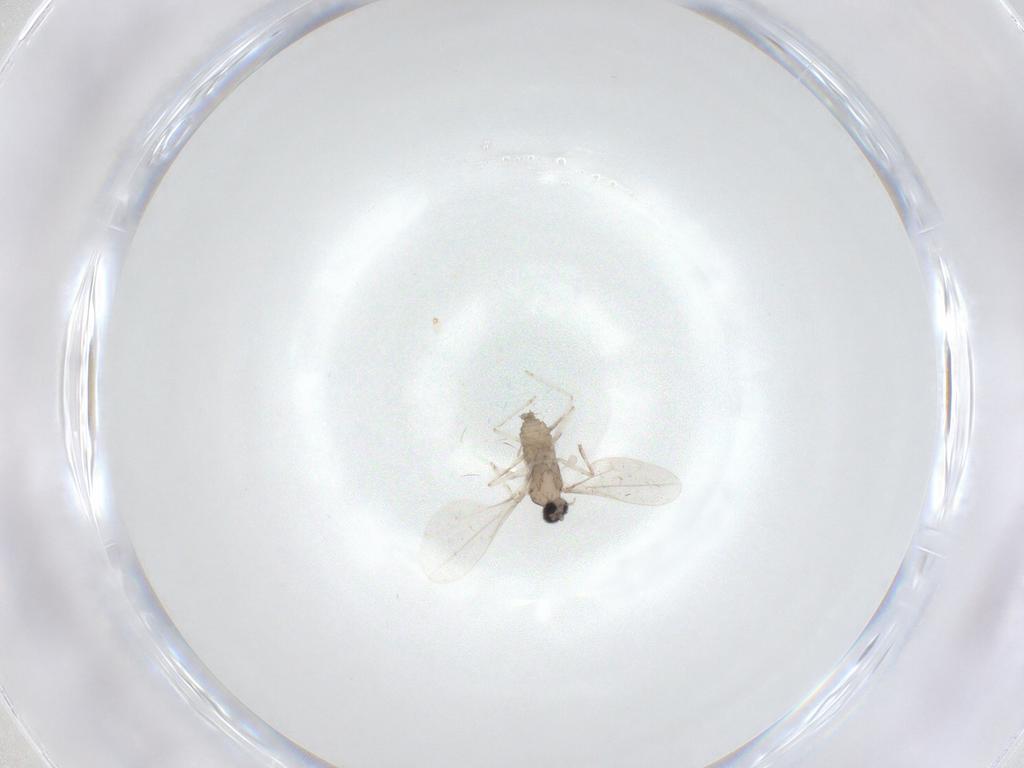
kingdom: Animalia
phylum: Arthropoda
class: Insecta
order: Diptera
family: Cecidomyiidae
